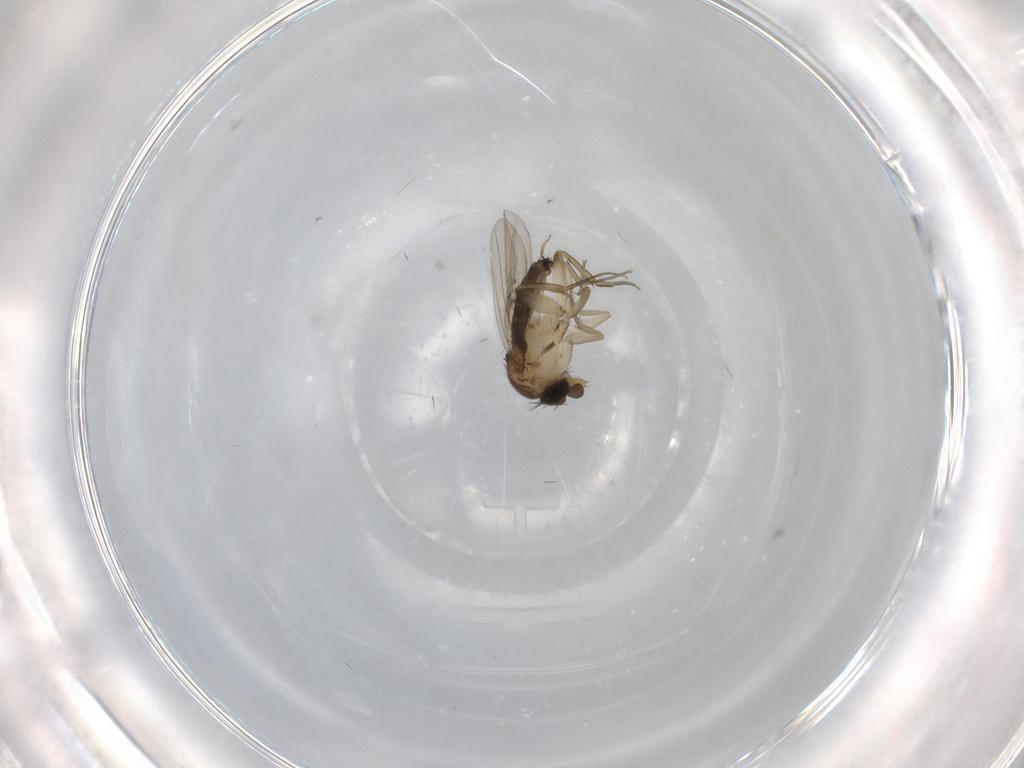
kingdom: Animalia
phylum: Arthropoda
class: Insecta
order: Diptera
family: Phoridae
